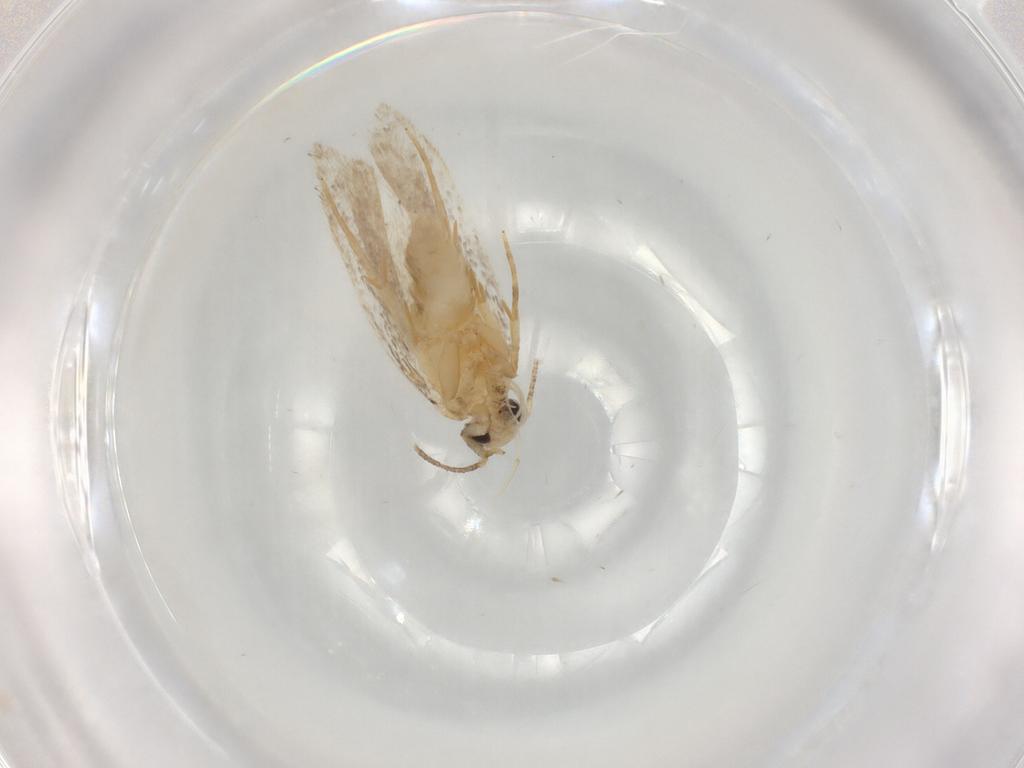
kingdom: Animalia
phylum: Arthropoda
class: Insecta
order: Lepidoptera
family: Autostichidae
